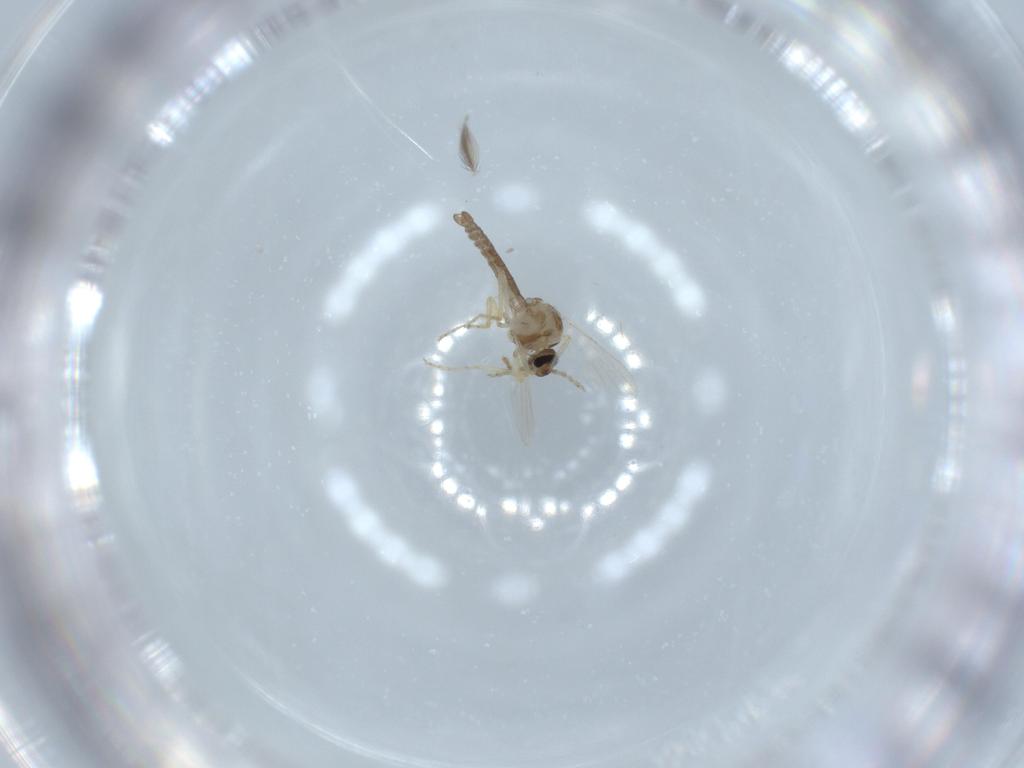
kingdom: Animalia
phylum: Arthropoda
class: Insecta
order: Diptera
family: Ceratopogonidae
